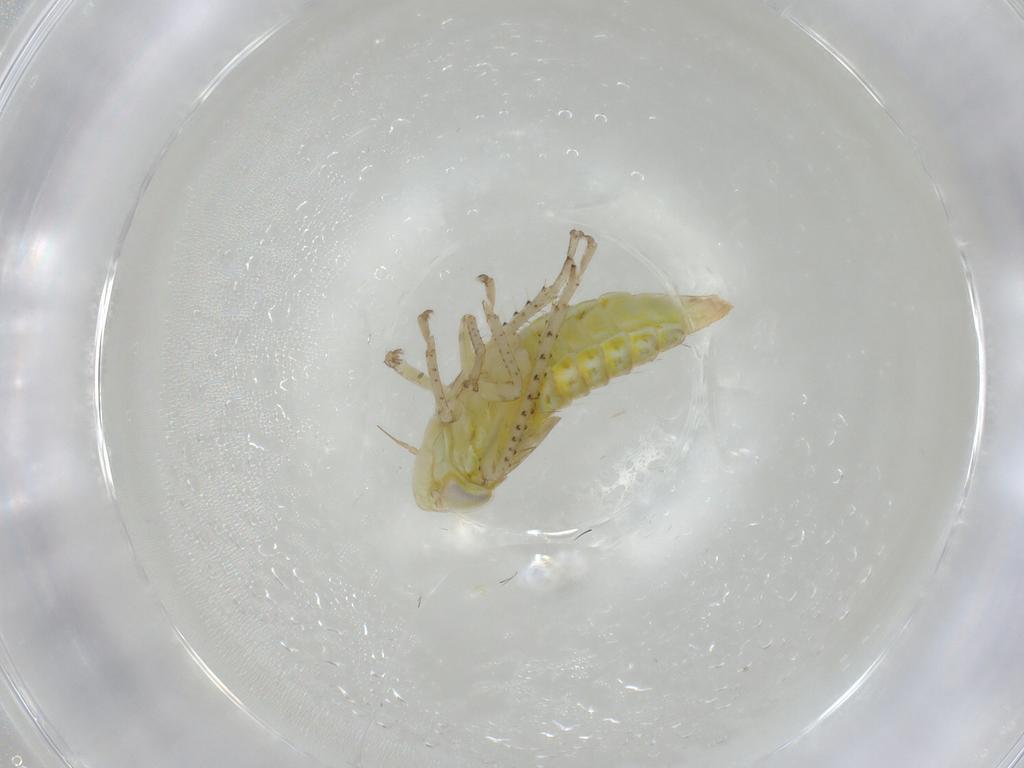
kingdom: Animalia
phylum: Arthropoda
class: Insecta
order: Hemiptera
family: Cicadellidae
